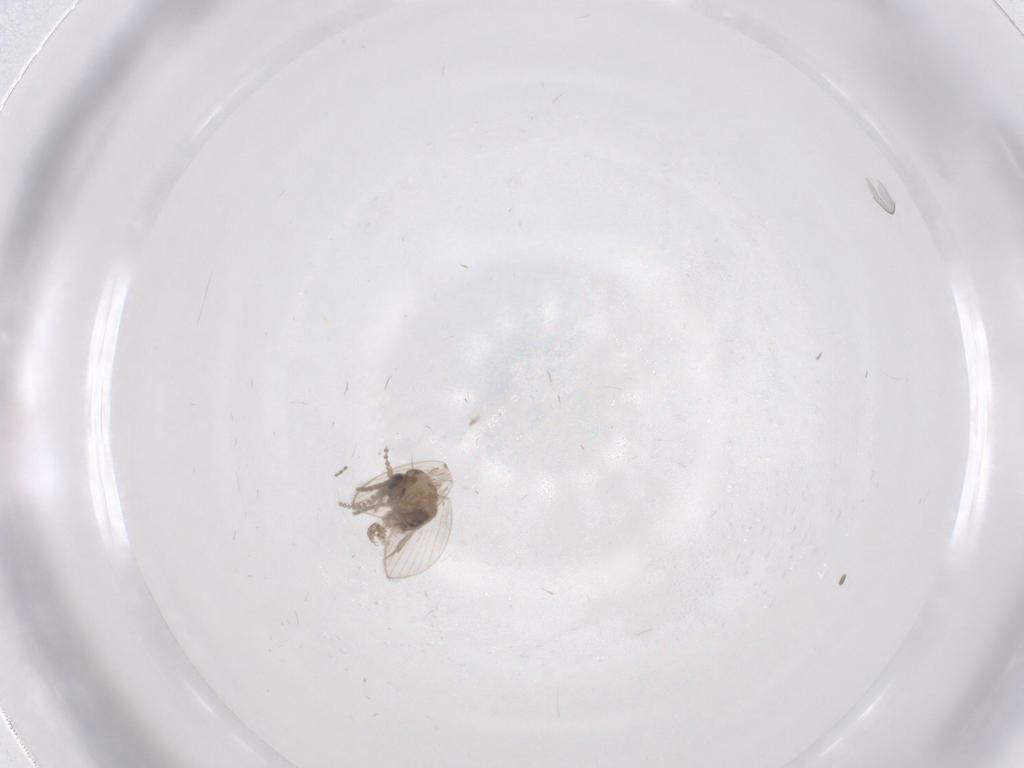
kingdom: Animalia
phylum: Arthropoda
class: Insecta
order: Diptera
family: Psychodidae
